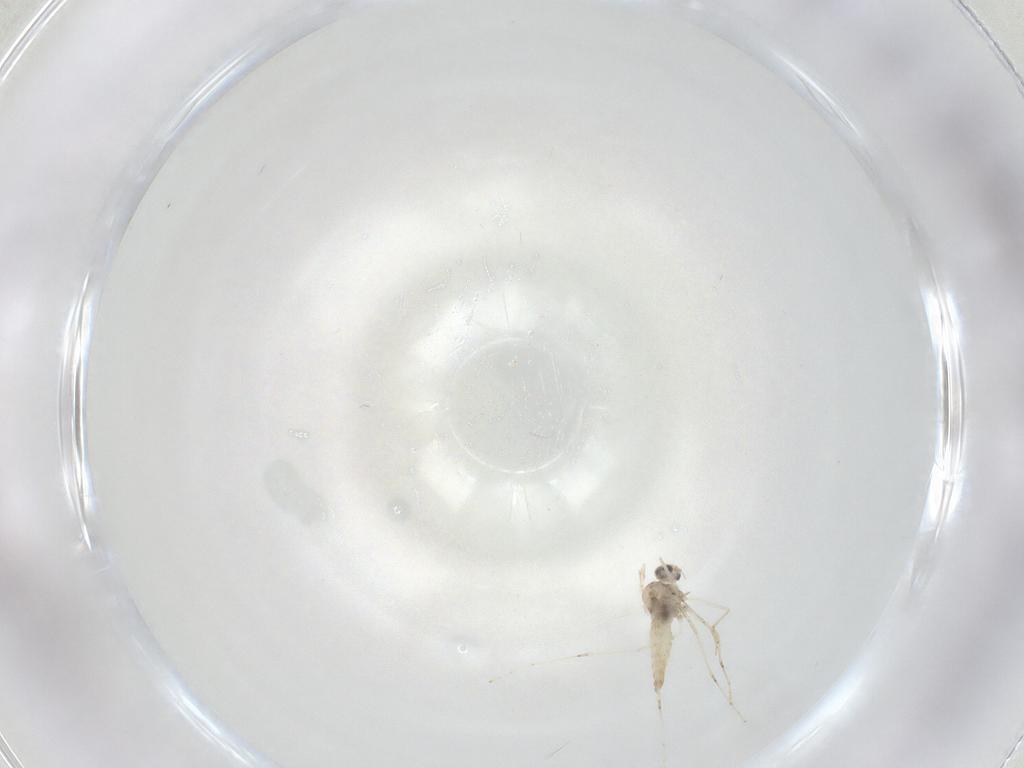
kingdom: Animalia
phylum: Arthropoda
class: Insecta
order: Diptera
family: Cecidomyiidae
